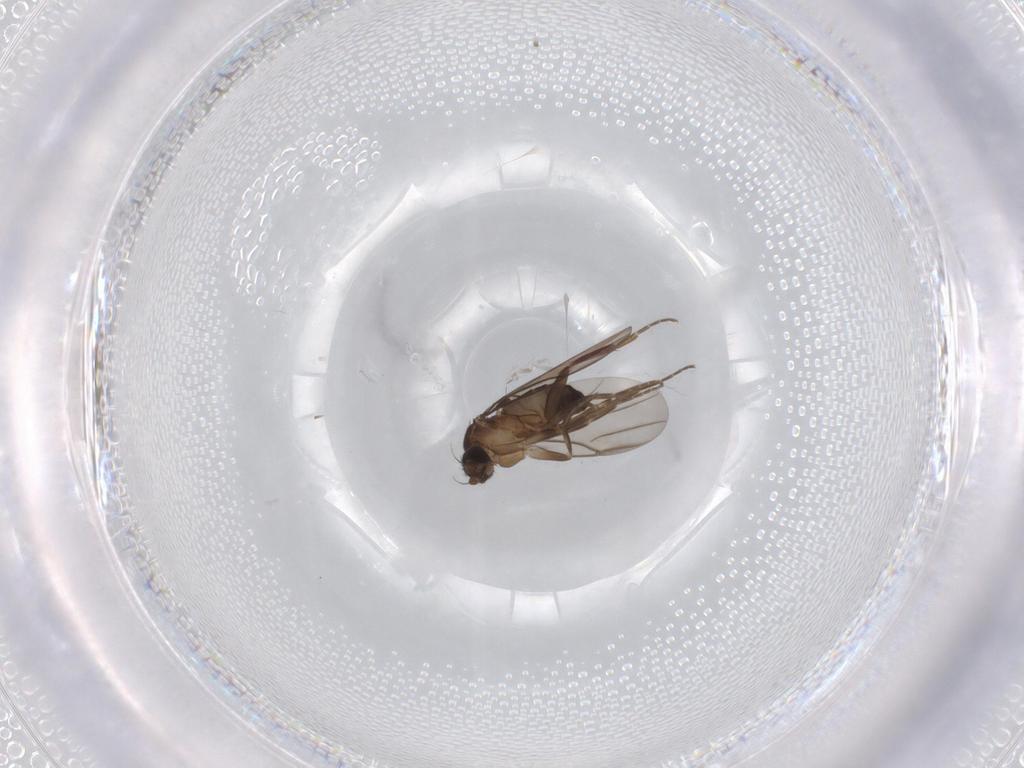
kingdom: Animalia
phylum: Arthropoda
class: Insecta
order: Diptera
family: Phoridae
